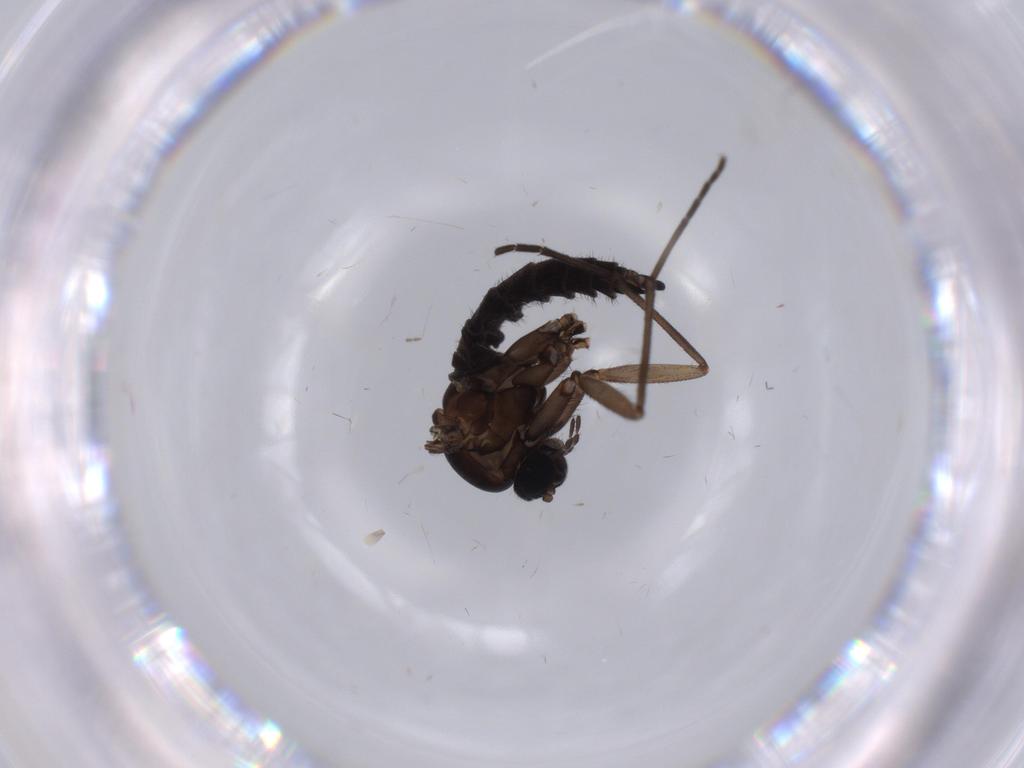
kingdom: Animalia
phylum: Arthropoda
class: Insecta
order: Diptera
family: Sciaridae
